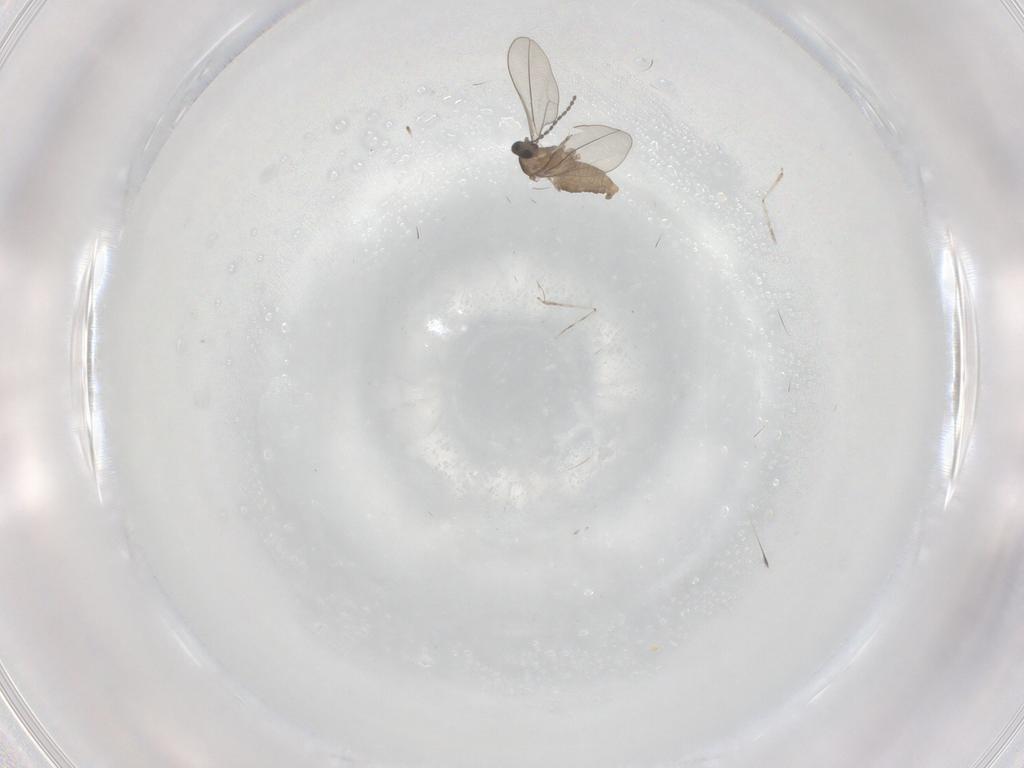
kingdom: Animalia
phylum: Arthropoda
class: Insecta
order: Diptera
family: Cecidomyiidae
